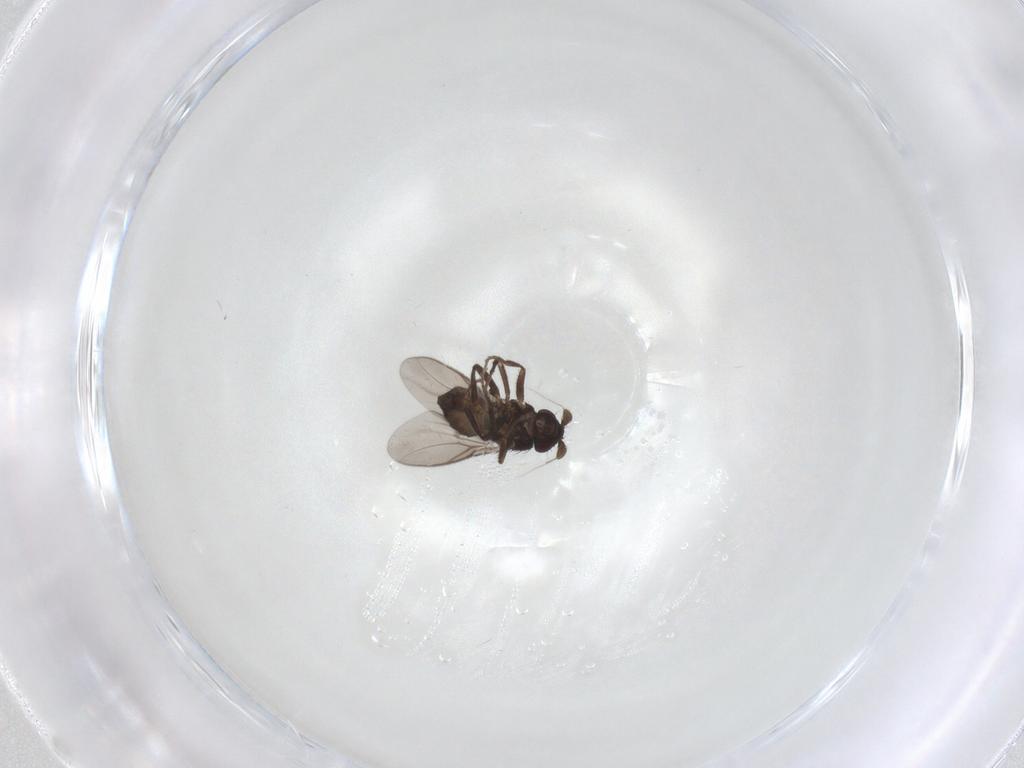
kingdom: Animalia
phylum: Arthropoda
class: Insecta
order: Diptera
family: Sphaeroceridae
